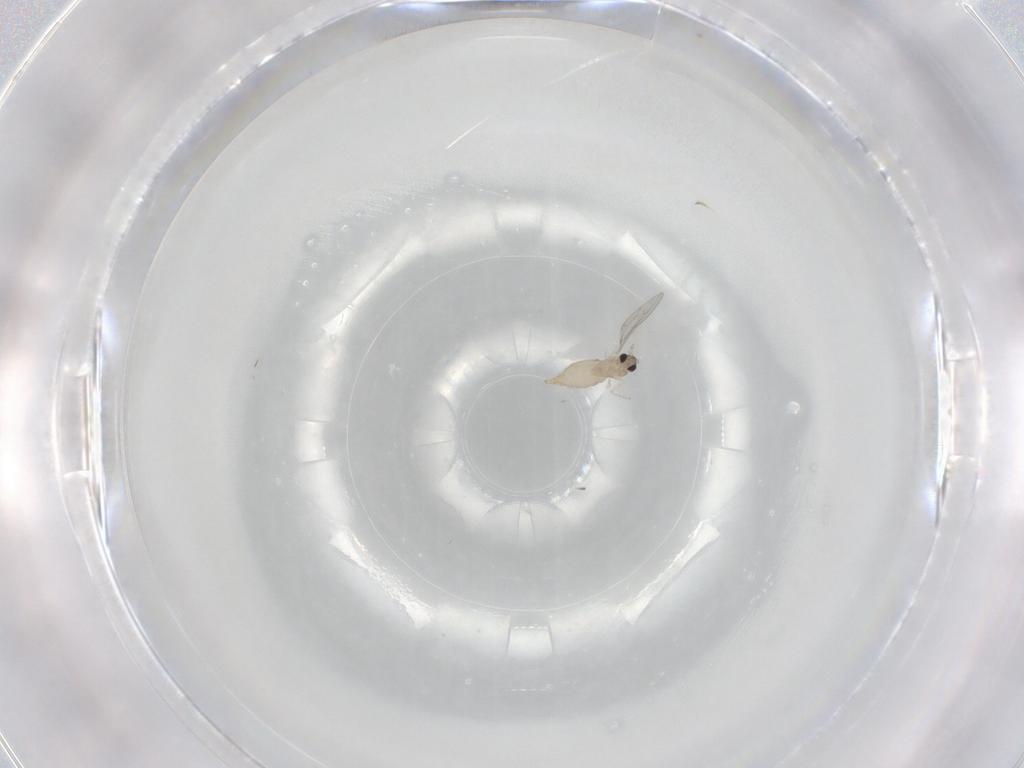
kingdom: Animalia
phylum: Arthropoda
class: Insecta
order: Diptera
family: Cecidomyiidae
